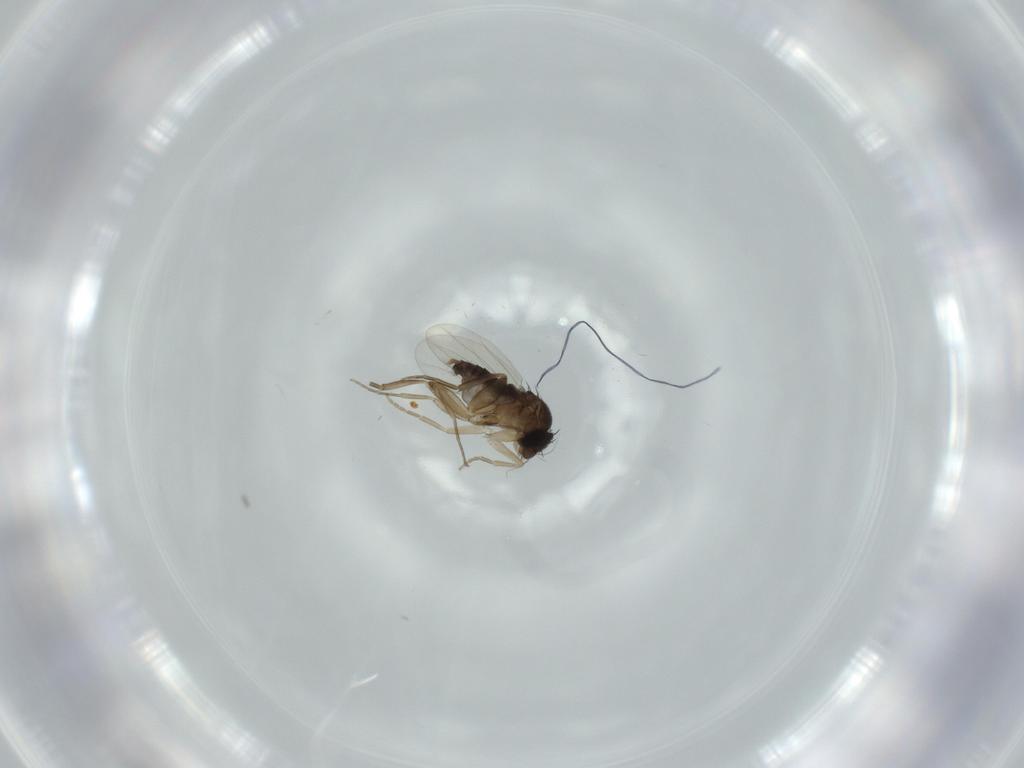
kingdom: Animalia
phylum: Arthropoda
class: Insecta
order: Diptera
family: Phoridae
